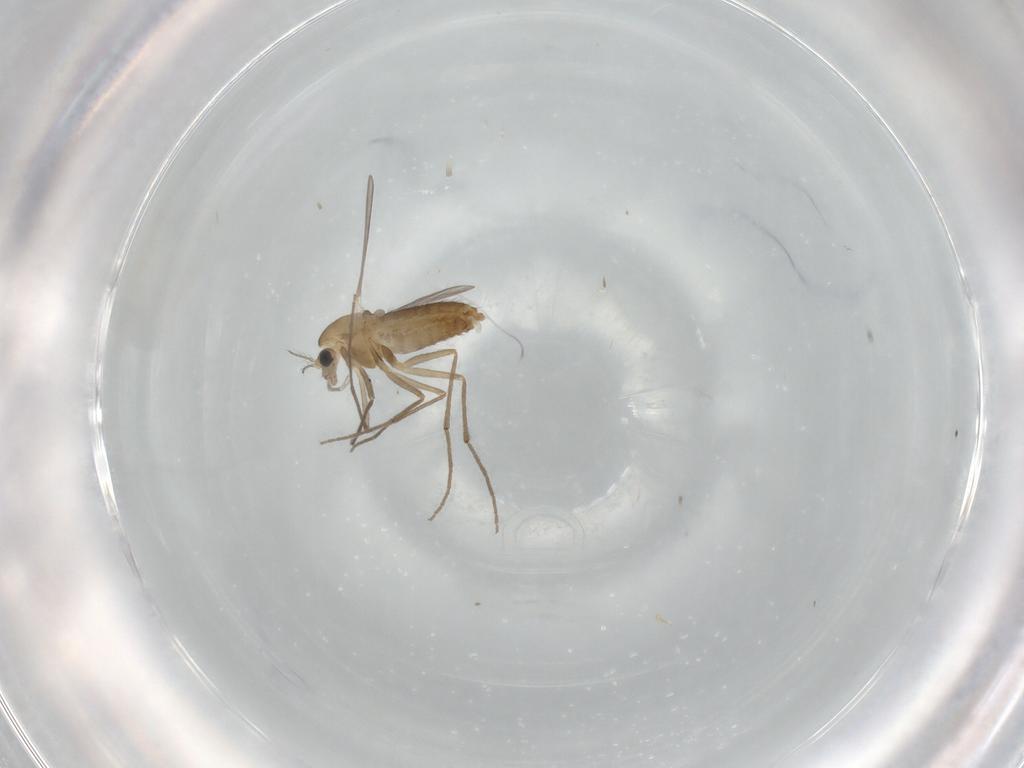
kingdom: Animalia
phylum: Arthropoda
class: Insecta
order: Diptera
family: Chironomidae
